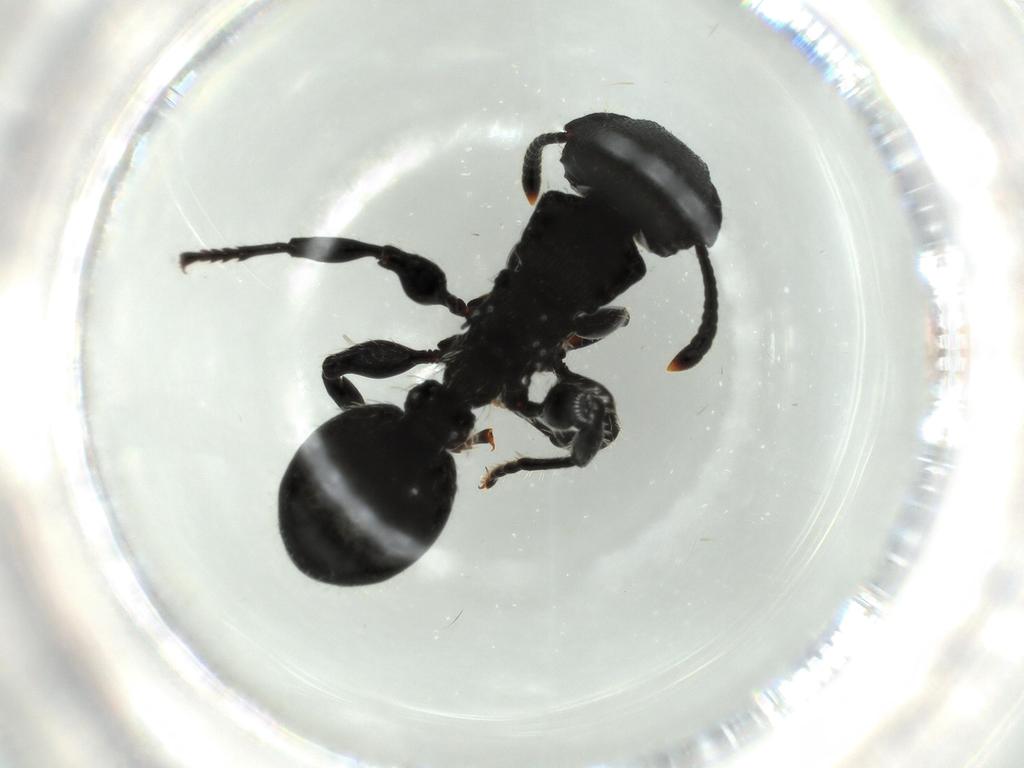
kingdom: Animalia
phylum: Arthropoda
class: Insecta
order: Hymenoptera
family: Formicidae
